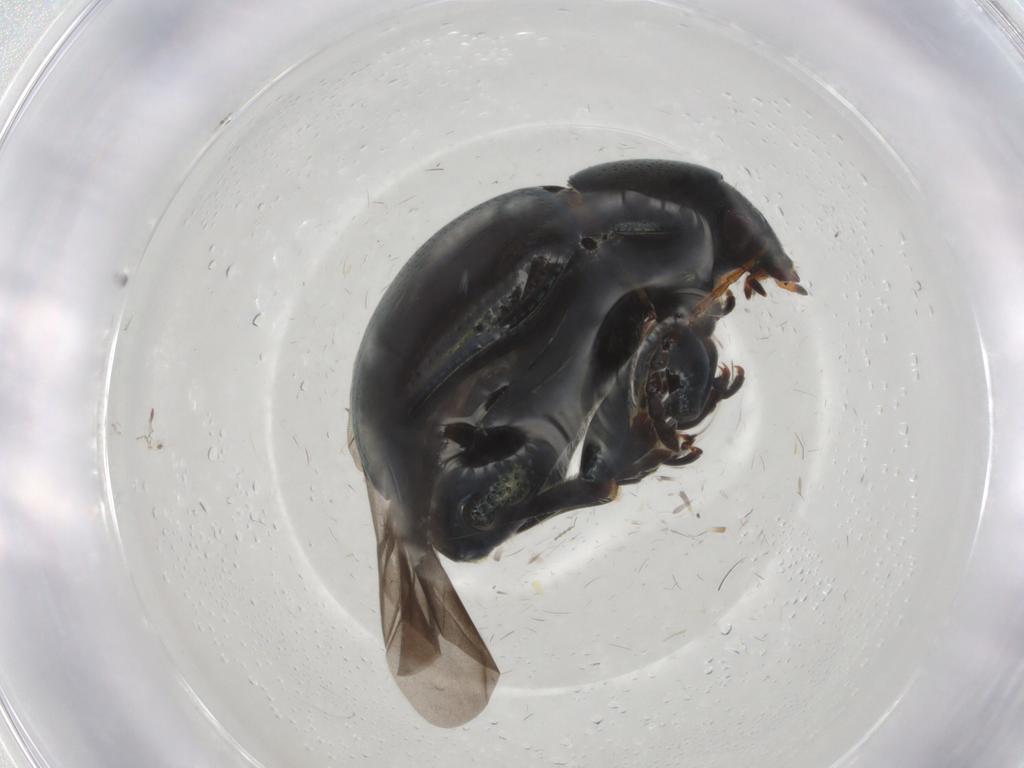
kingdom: Animalia
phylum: Arthropoda
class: Insecta
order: Coleoptera
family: Chrysomelidae
